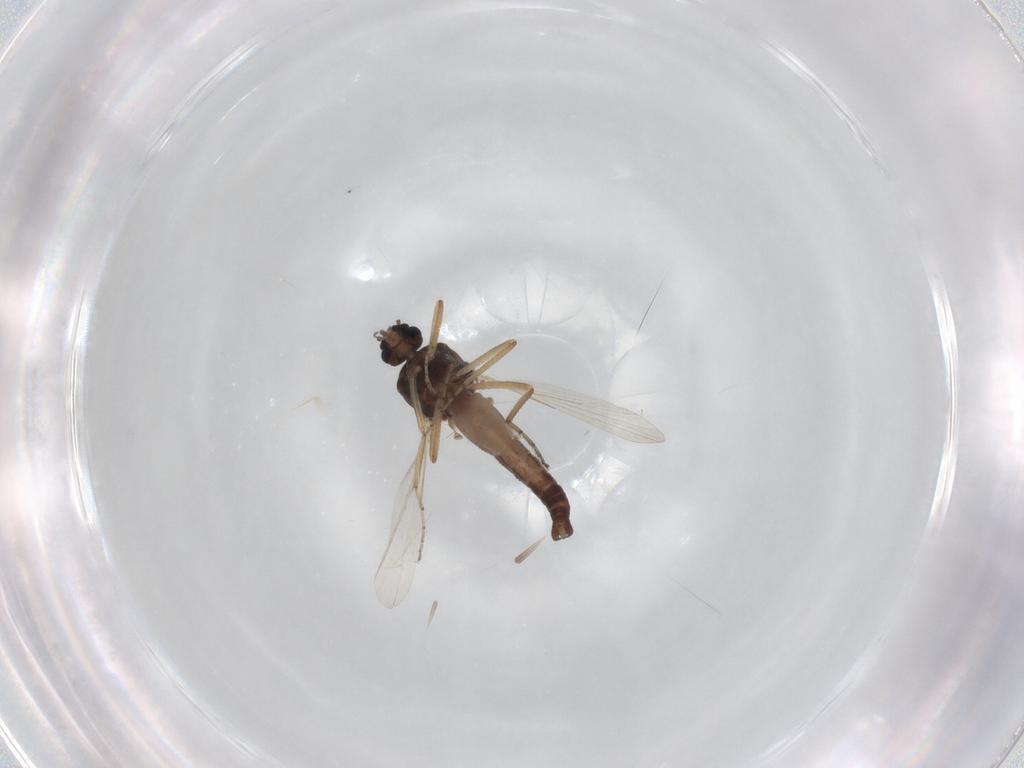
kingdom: Animalia
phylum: Arthropoda
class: Insecta
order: Diptera
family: Ceratopogonidae
